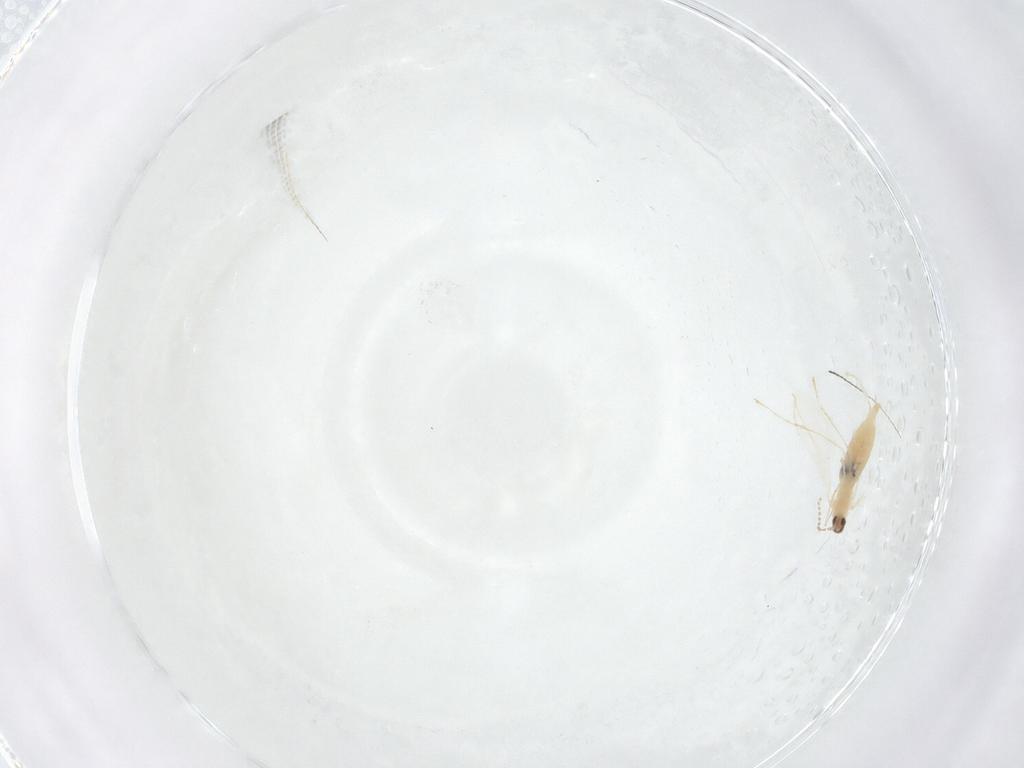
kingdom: Animalia
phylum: Arthropoda
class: Insecta
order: Diptera
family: Cecidomyiidae
